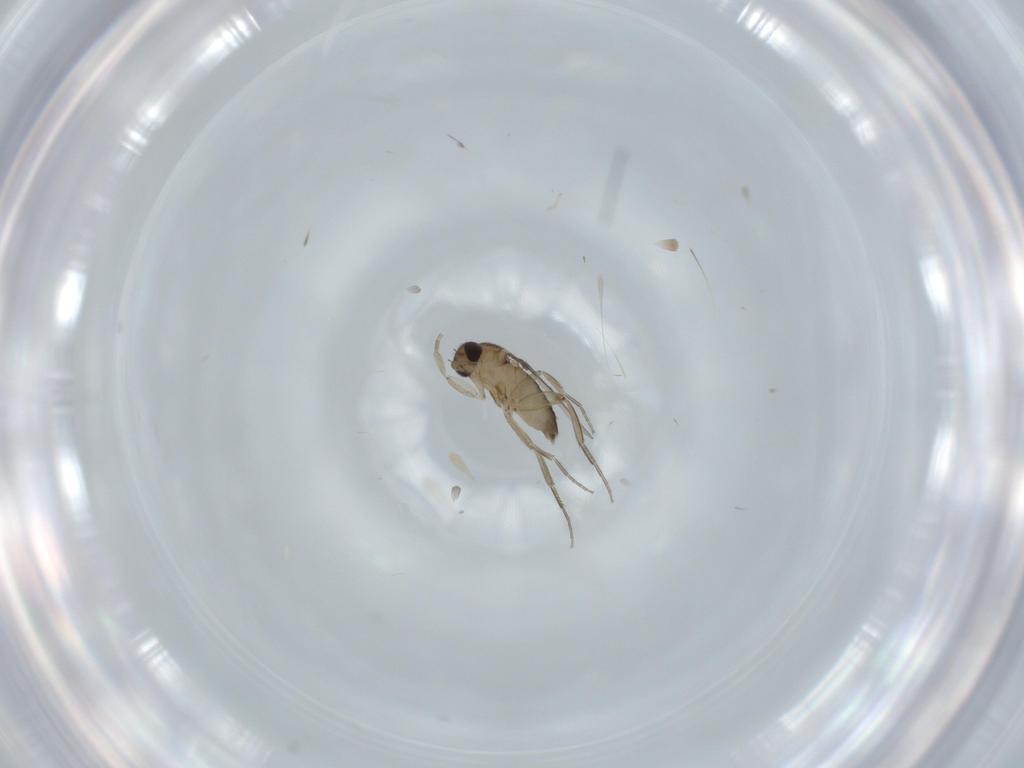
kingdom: Animalia
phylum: Arthropoda
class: Insecta
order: Diptera
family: Phoridae
